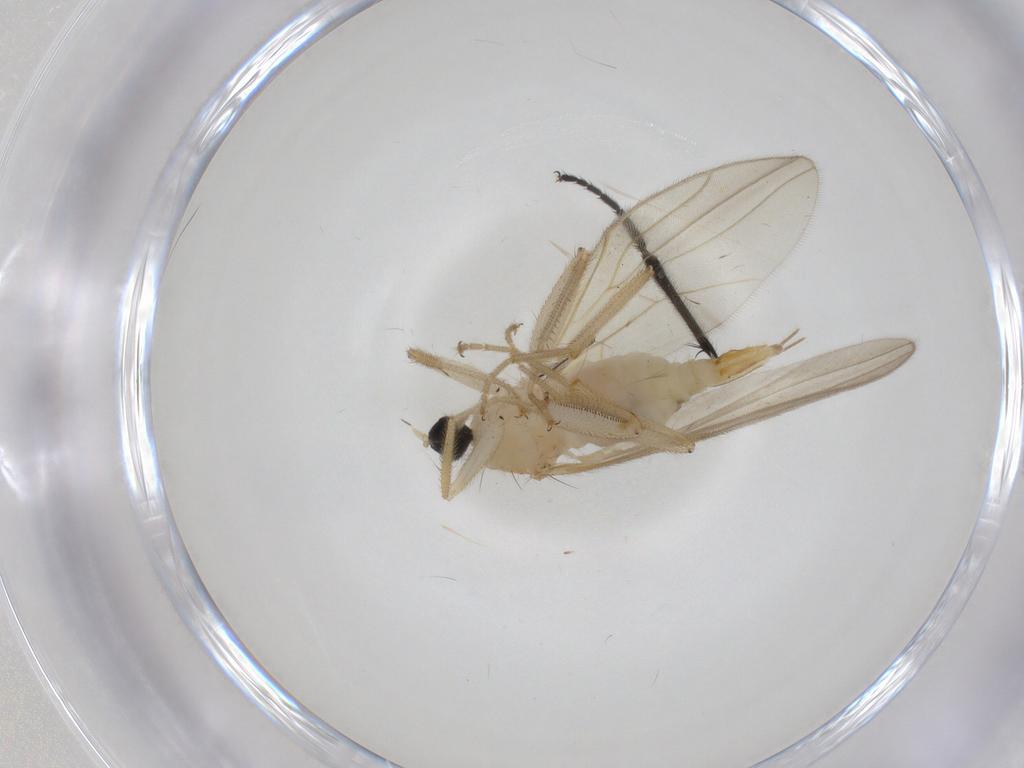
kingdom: Animalia
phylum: Arthropoda
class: Insecta
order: Diptera
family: Hybotidae
